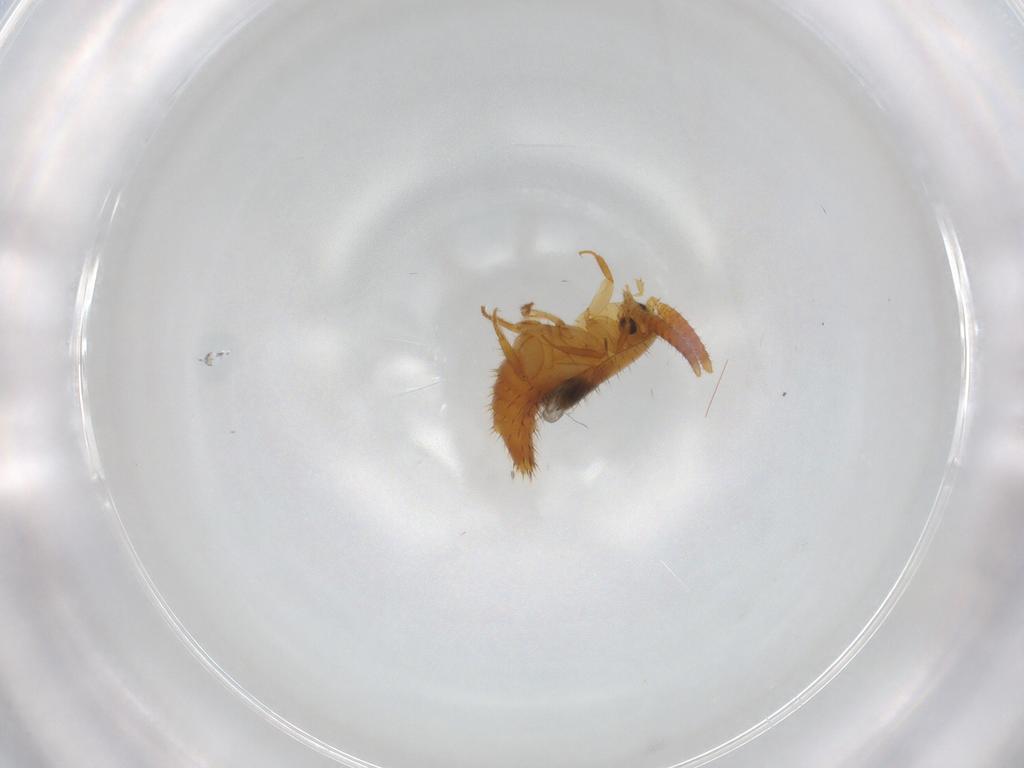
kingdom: Animalia
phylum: Arthropoda
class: Insecta
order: Coleoptera
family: Staphylinidae
